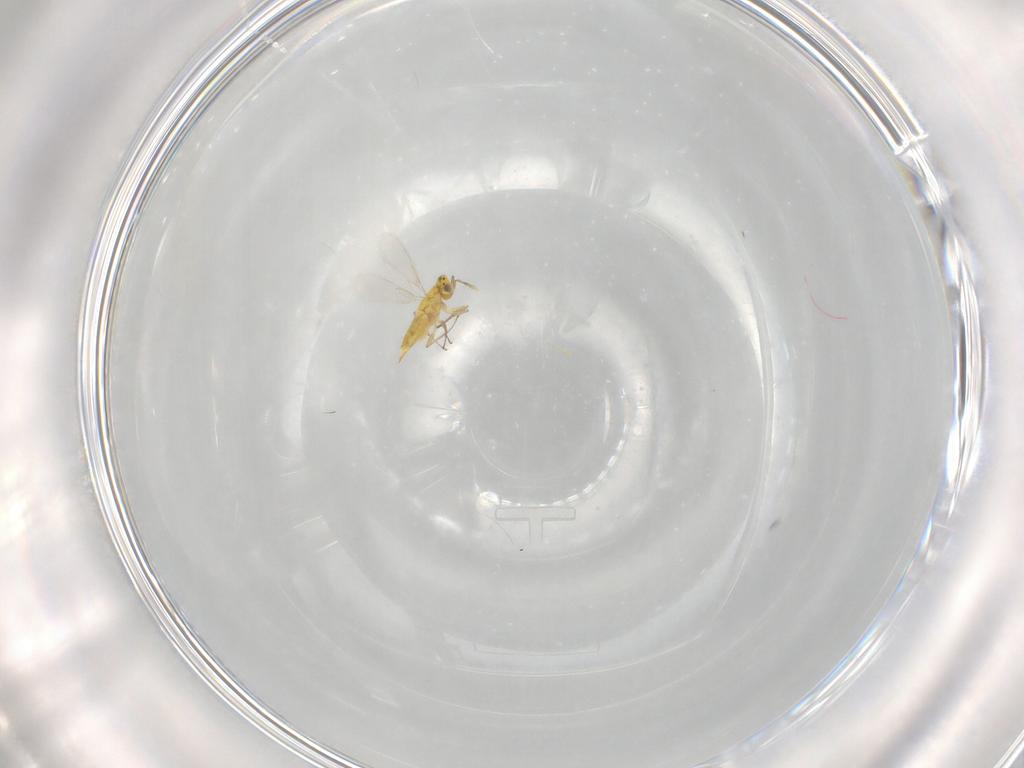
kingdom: Animalia
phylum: Arthropoda
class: Insecta
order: Hymenoptera
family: Aphelinidae
